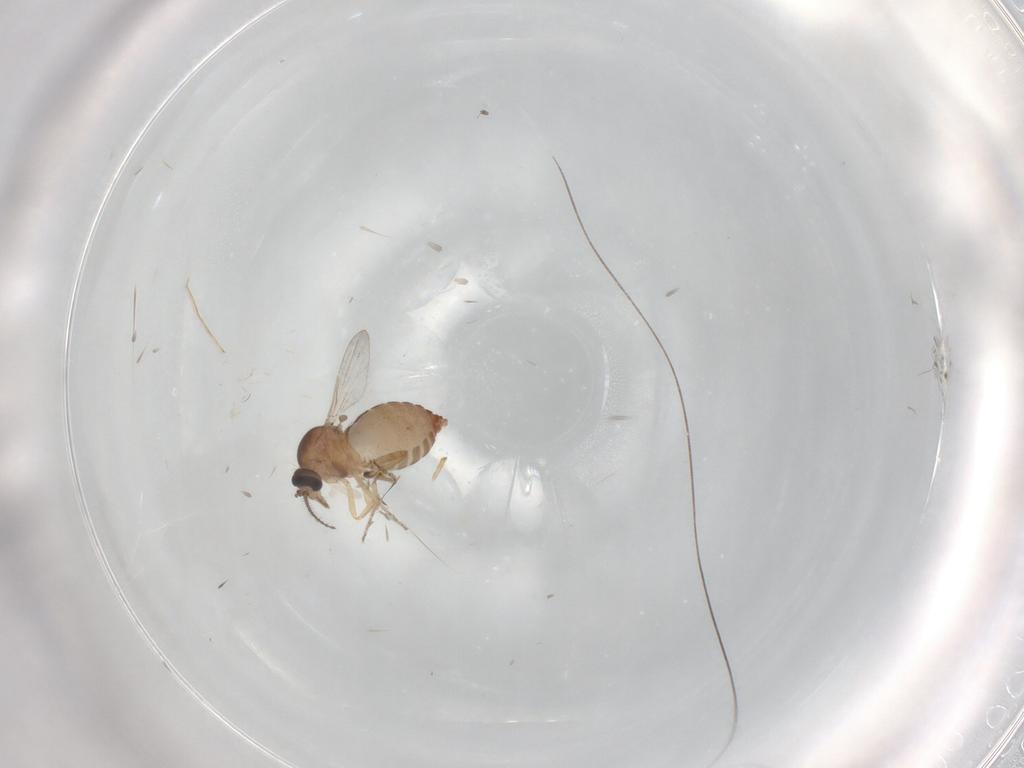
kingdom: Animalia
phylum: Arthropoda
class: Insecta
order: Diptera
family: Ceratopogonidae
